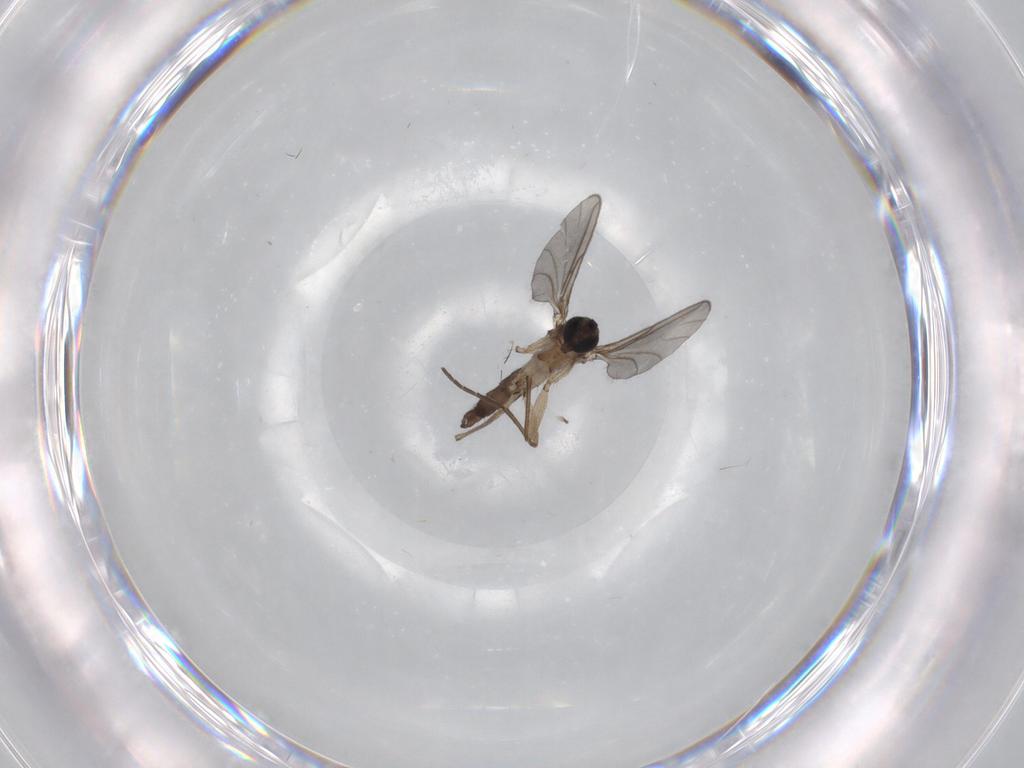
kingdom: Animalia
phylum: Arthropoda
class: Insecta
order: Diptera
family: Sciaridae
